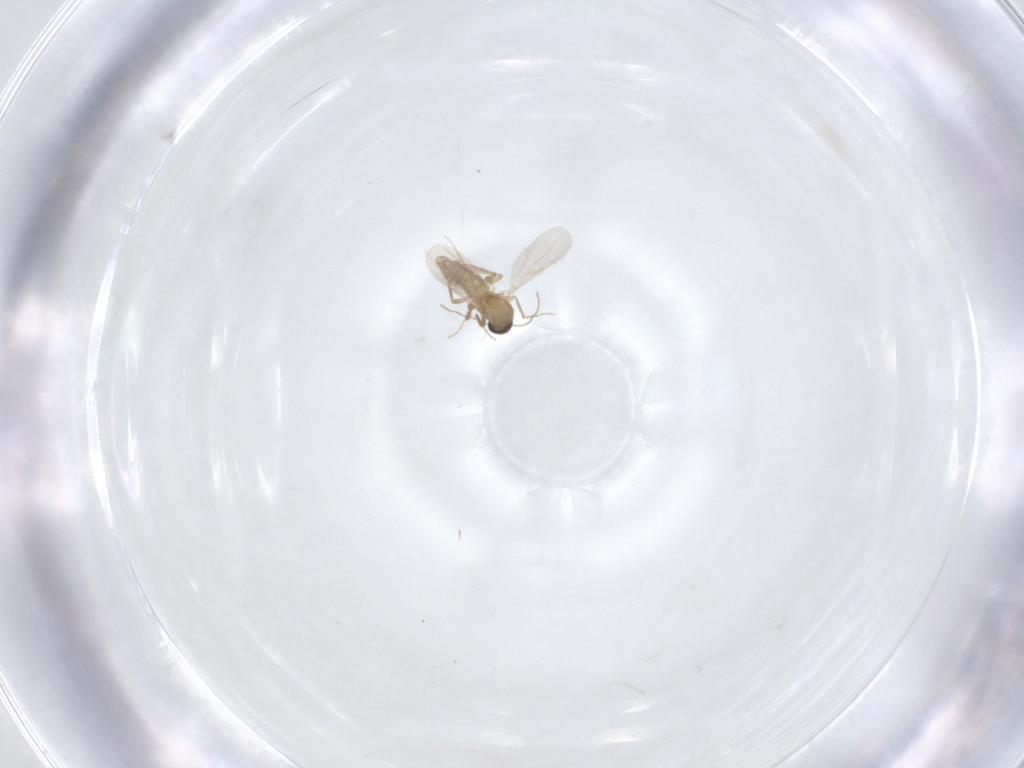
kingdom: Animalia
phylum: Arthropoda
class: Insecta
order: Diptera
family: Ceratopogonidae
